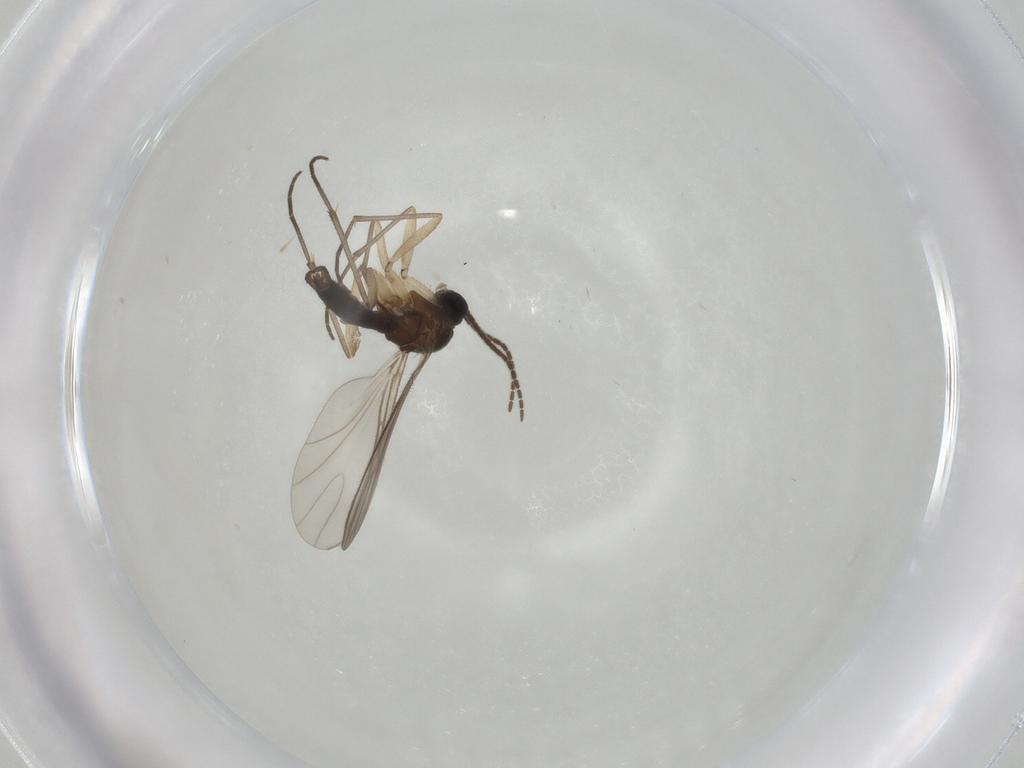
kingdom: Animalia
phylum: Arthropoda
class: Insecta
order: Diptera
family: Sciaridae
